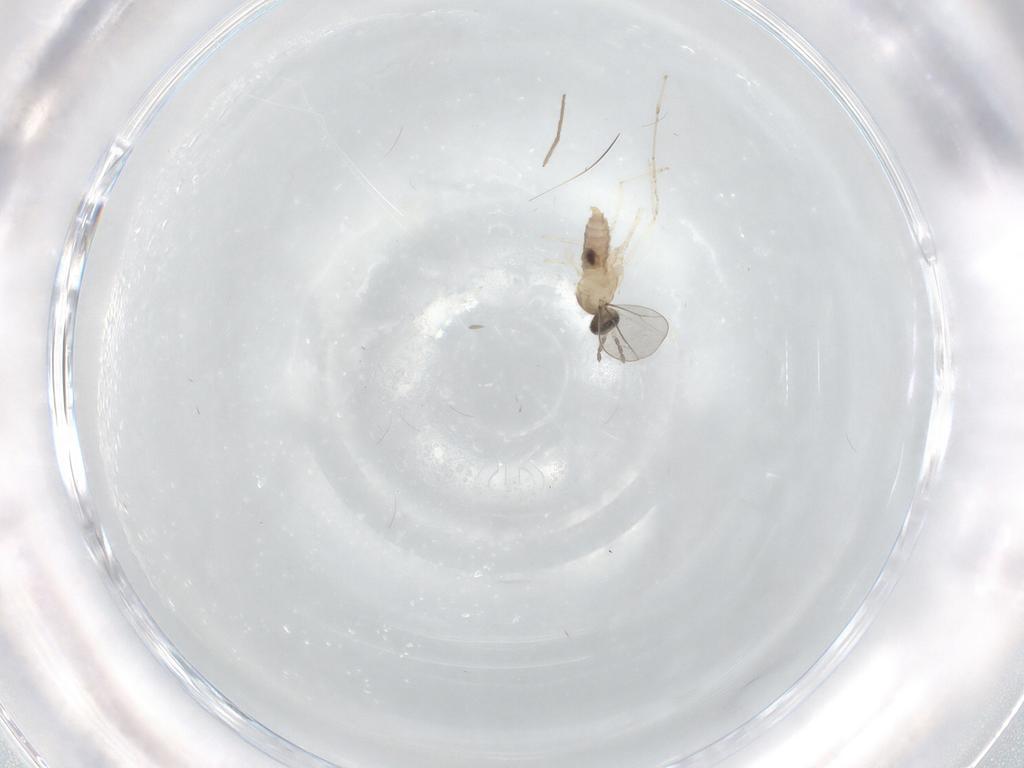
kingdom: Animalia
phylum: Arthropoda
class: Insecta
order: Diptera
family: Cecidomyiidae
